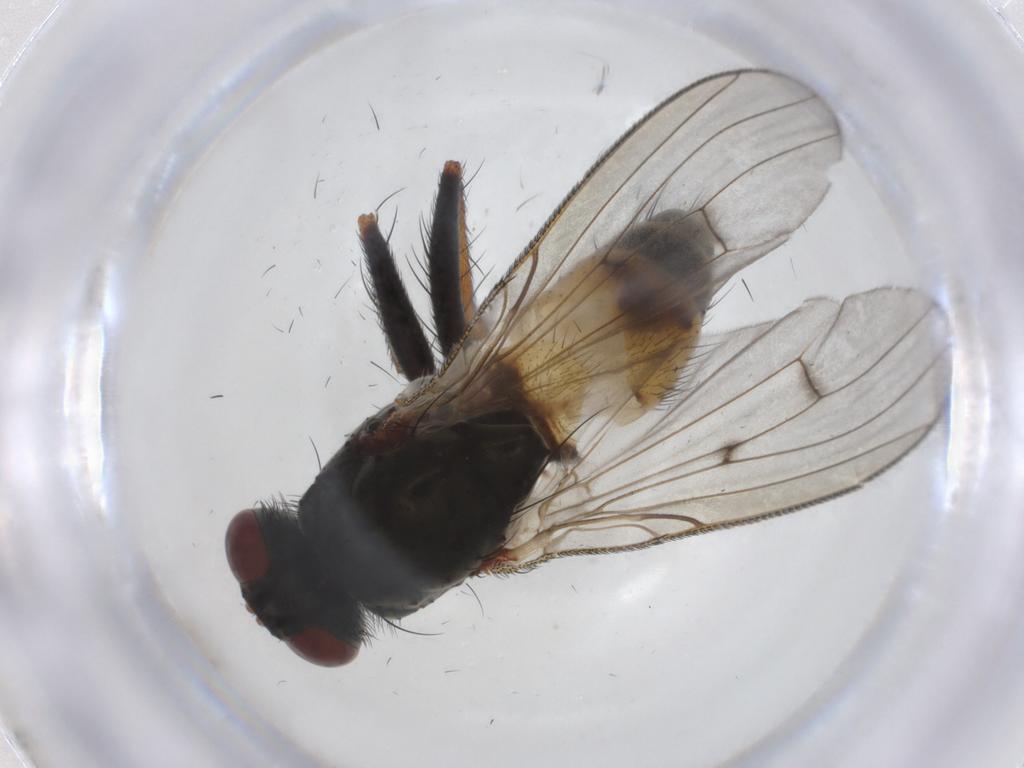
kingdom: Animalia
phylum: Arthropoda
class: Insecta
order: Diptera
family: Muscidae
